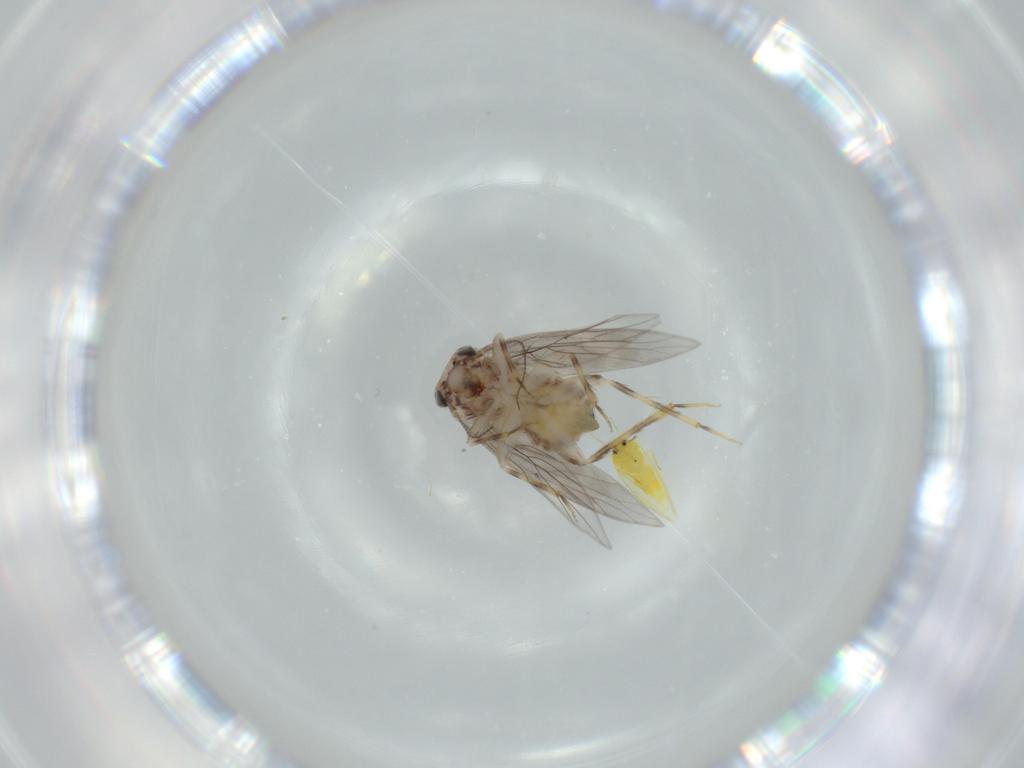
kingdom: Animalia
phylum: Arthropoda
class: Insecta
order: Psocodea
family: Lepidopsocidae
